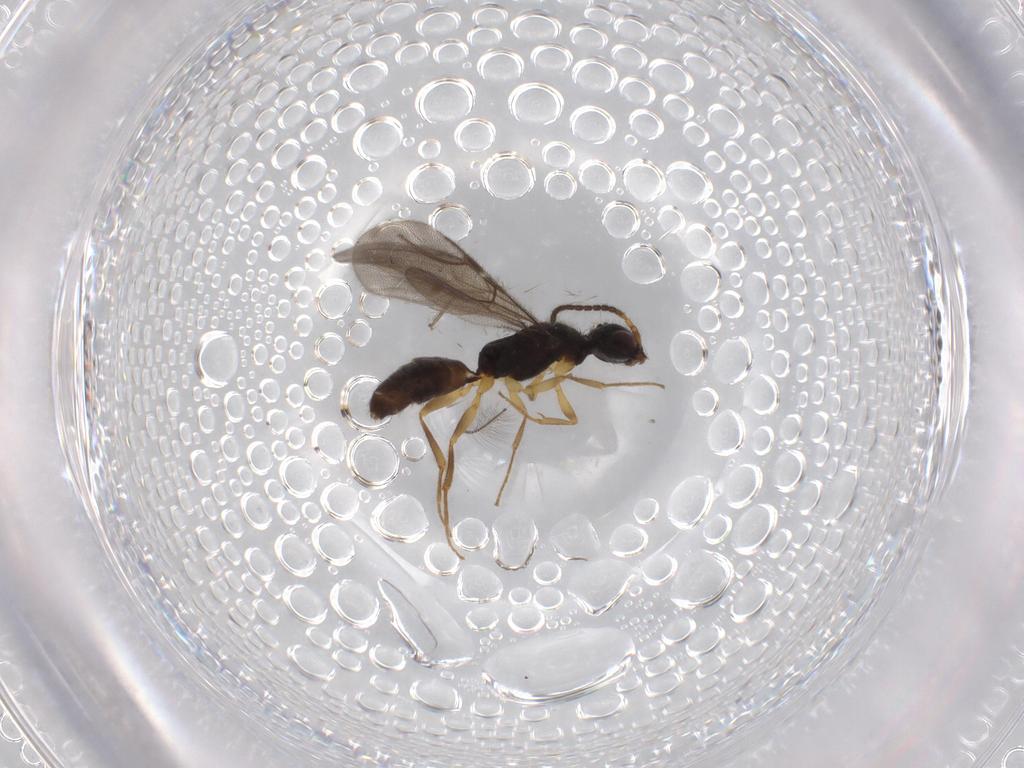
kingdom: Animalia
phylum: Arthropoda
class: Insecta
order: Hymenoptera
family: Bethylidae
